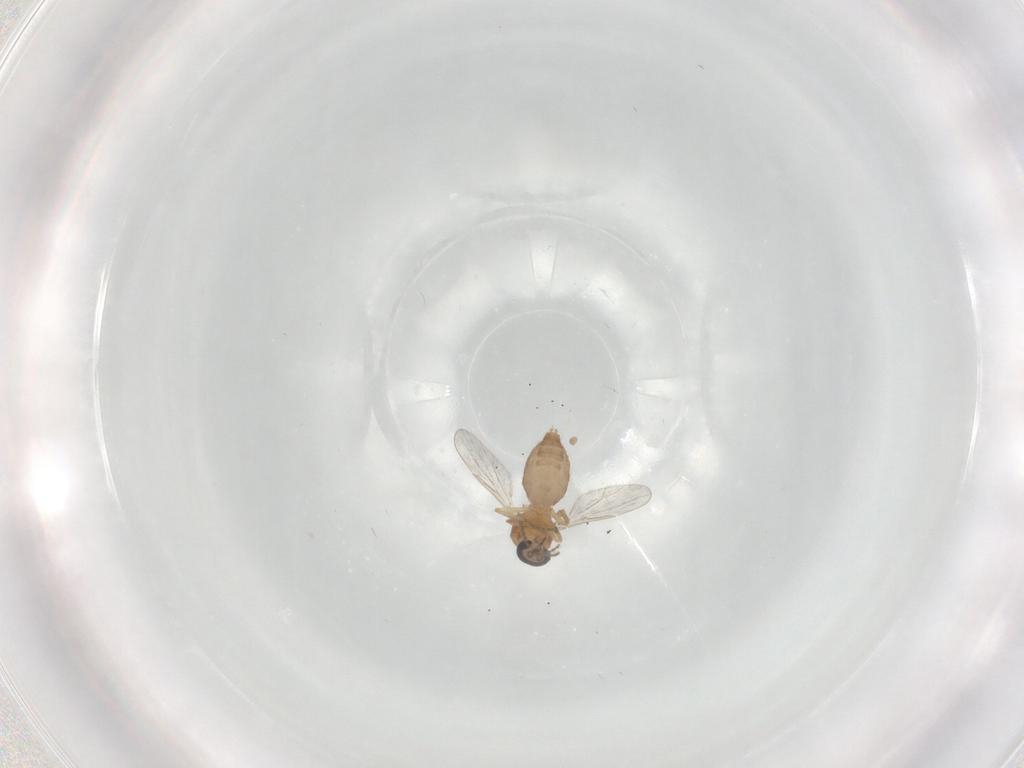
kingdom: Animalia
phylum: Arthropoda
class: Insecta
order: Diptera
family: Ceratopogonidae
